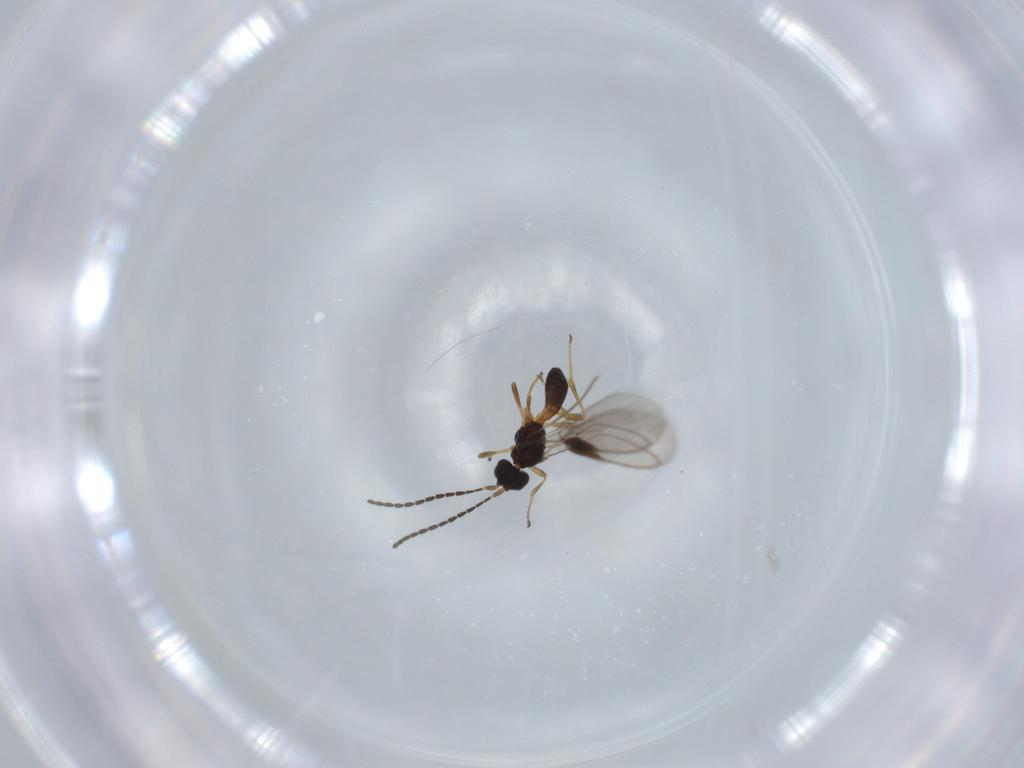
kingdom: Animalia
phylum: Arthropoda
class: Insecta
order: Hymenoptera
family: Braconidae
